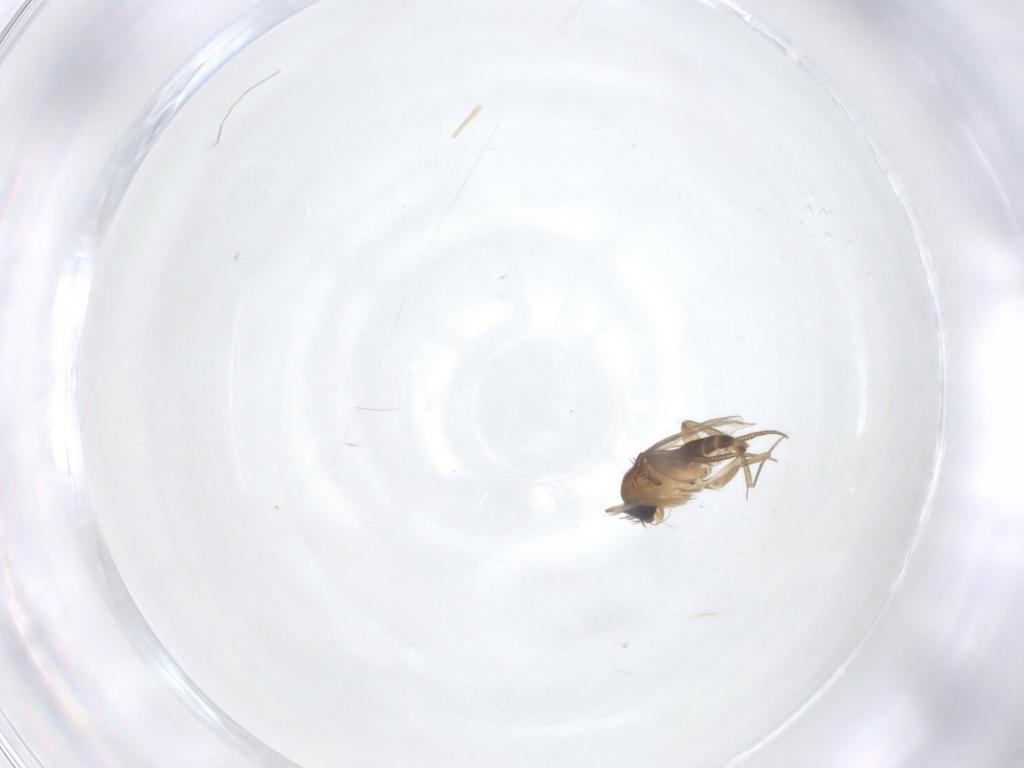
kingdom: Animalia
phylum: Arthropoda
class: Insecta
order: Diptera
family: Phoridae
